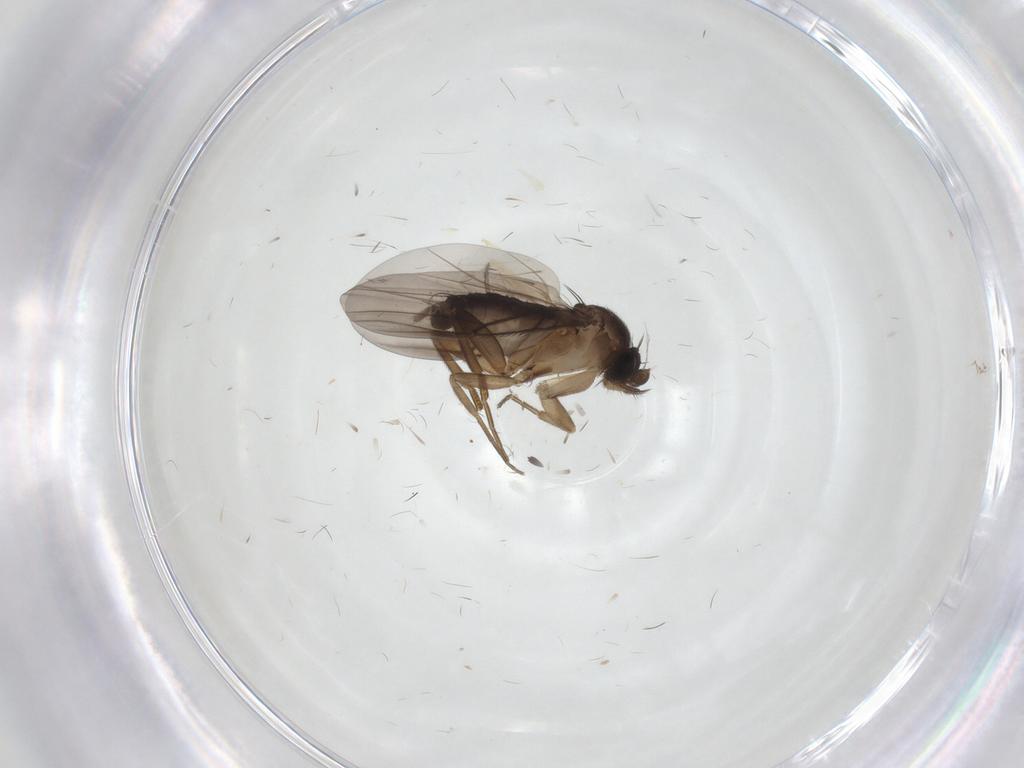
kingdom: Animalia
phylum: Arthropoda
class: Insecta
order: Diptera
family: Phoridae
